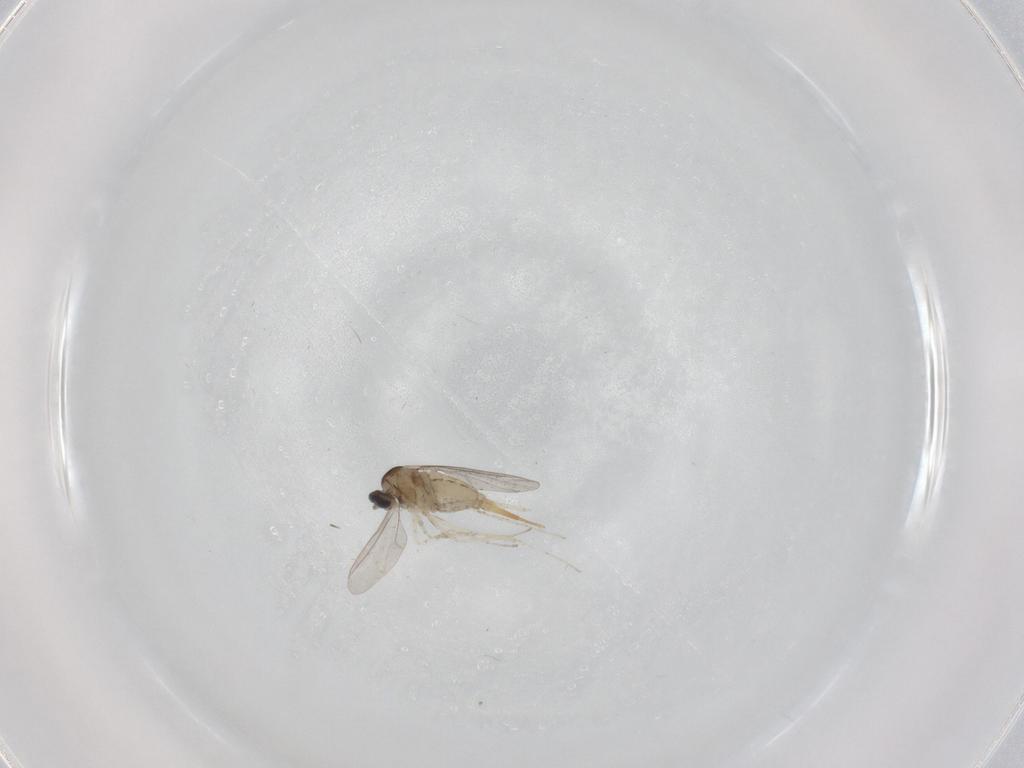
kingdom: Animalia
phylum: Arthropoda
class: Insecta
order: Diptera
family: Cecidomyiidae
